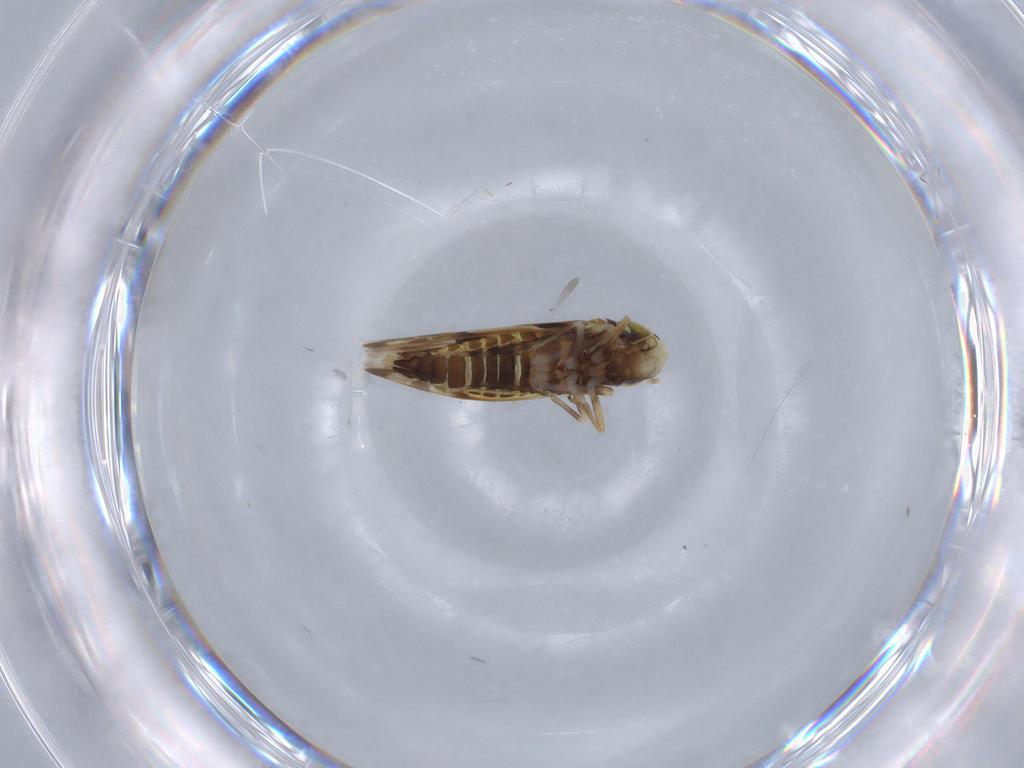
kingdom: Animalia
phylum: Arthropoda
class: Insecta
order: Hemiptera
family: Cicadellidae
